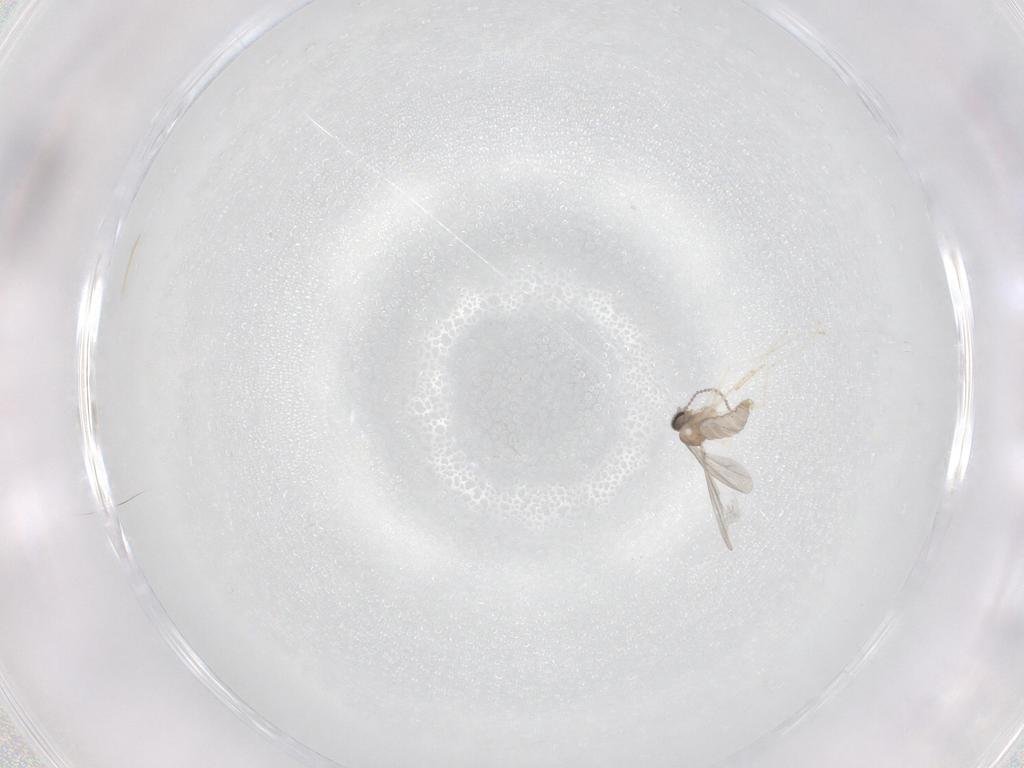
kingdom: Animalia
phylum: Arthropoda
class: Insecta
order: Diptera
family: Cecidomyiidae
